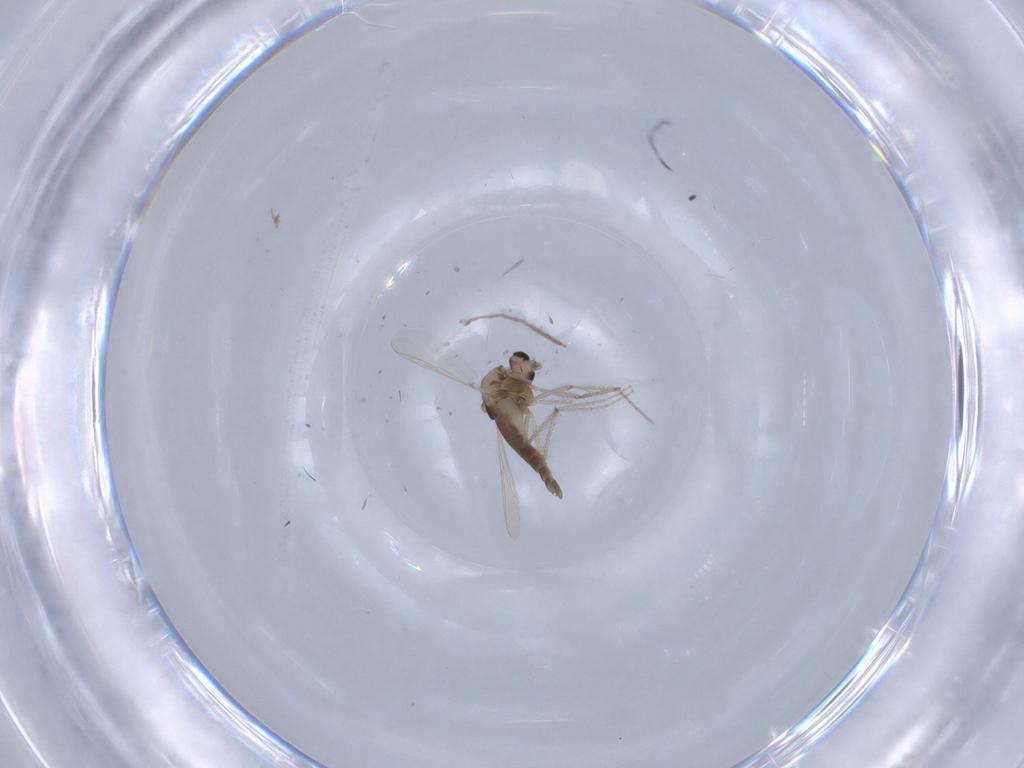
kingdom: Animalia
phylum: Arthropoda
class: Insecta
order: Diptera
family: Chironomidae
